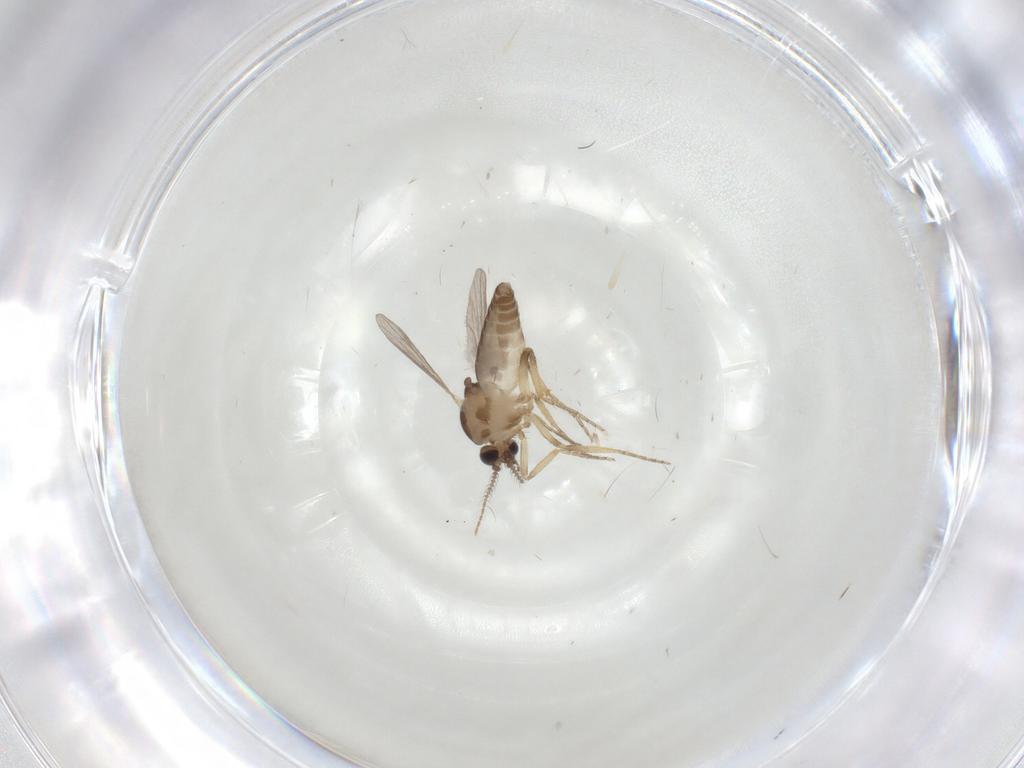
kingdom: Animalia
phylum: Arthropoda
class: Insecta
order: Diptera
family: Ceratopogonidae
